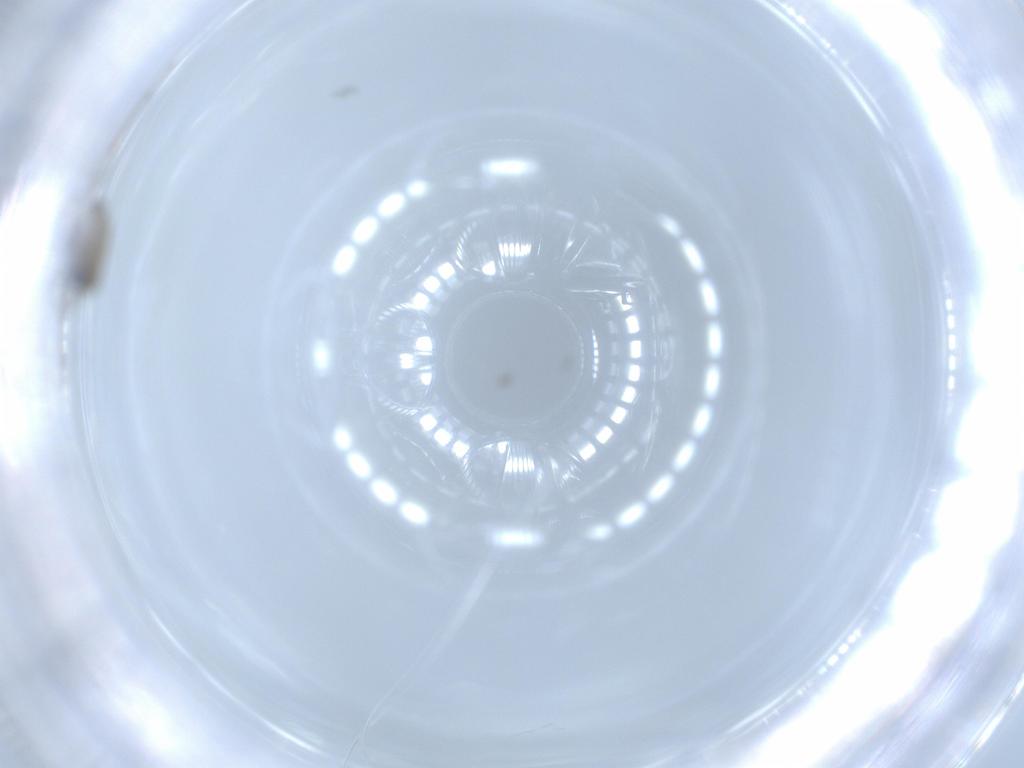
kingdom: Animalia
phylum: Arthropoda
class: Insecta
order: Diptera
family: Cecidomyiidae
